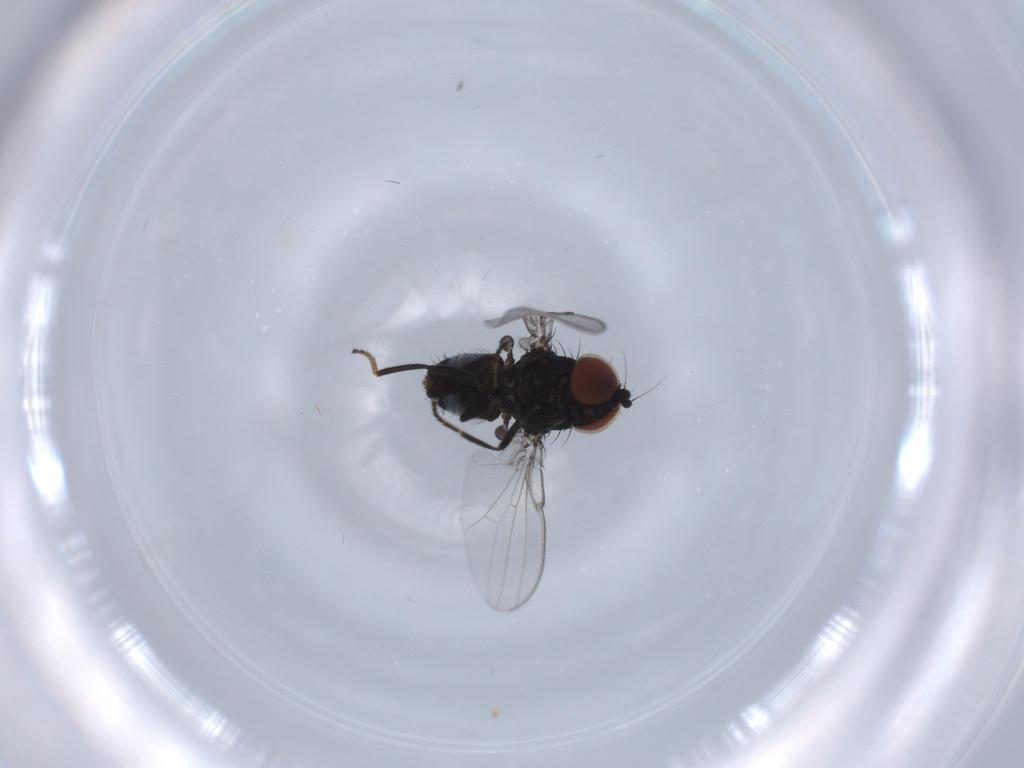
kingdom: Animalia
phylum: Arthropoda
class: Insecta
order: Diptera
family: Milichiidae
